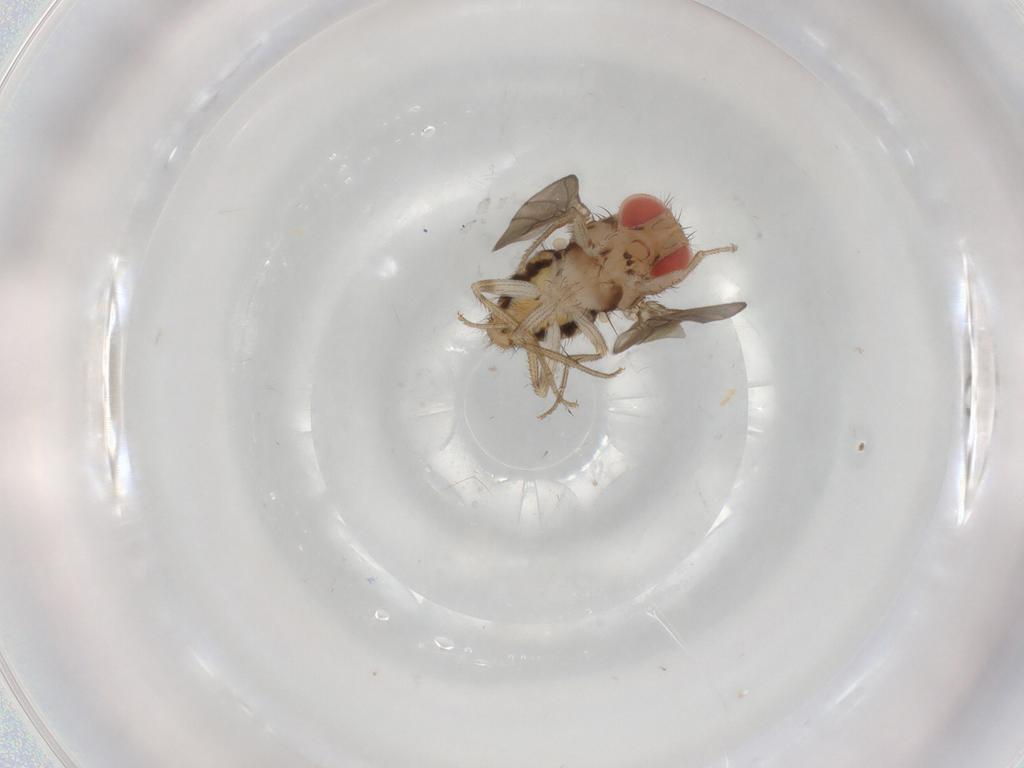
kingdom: Animalia
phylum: Arthropoda
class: Insecta
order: Diptera
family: Drosophilidae
